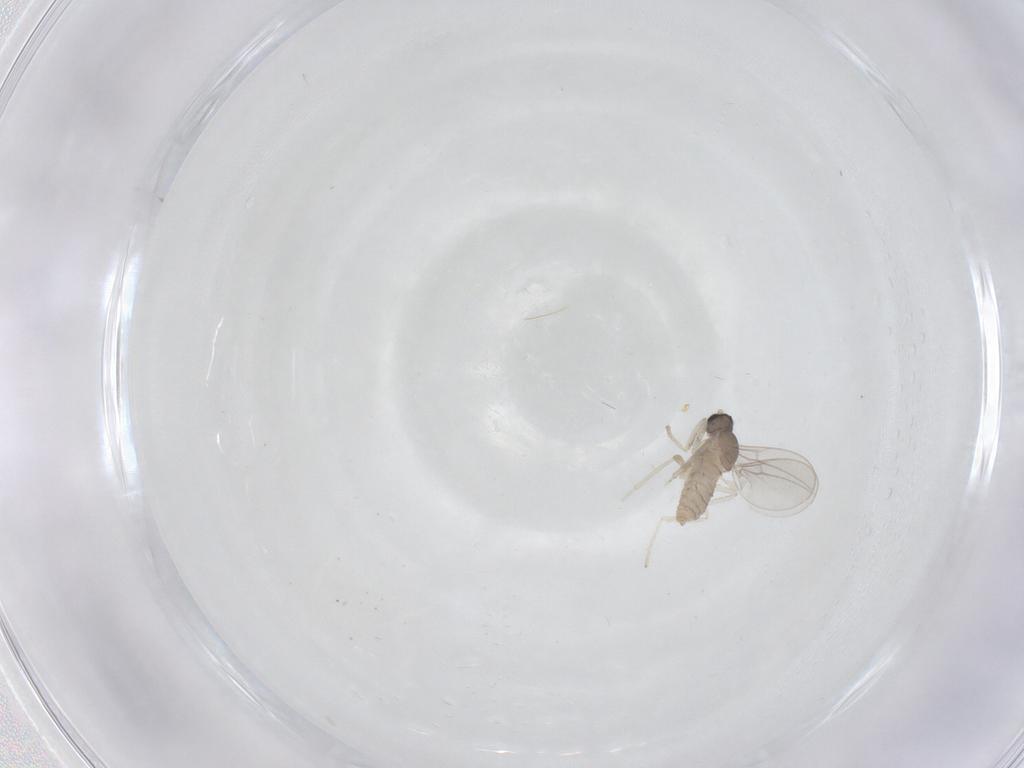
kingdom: Animalia
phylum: Arthropoda
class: Insecta
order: Diptera
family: Cecidomyiidae
